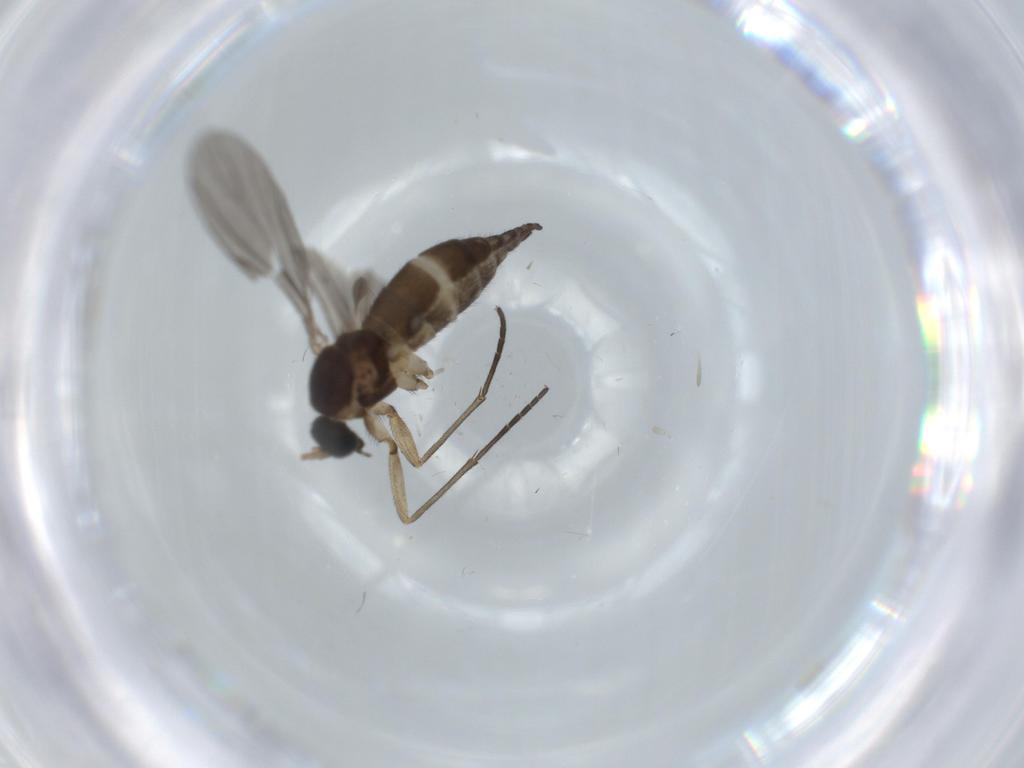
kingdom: Animalia
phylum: Arthropoda
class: Insecta
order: Diptera
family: Sciaridae
